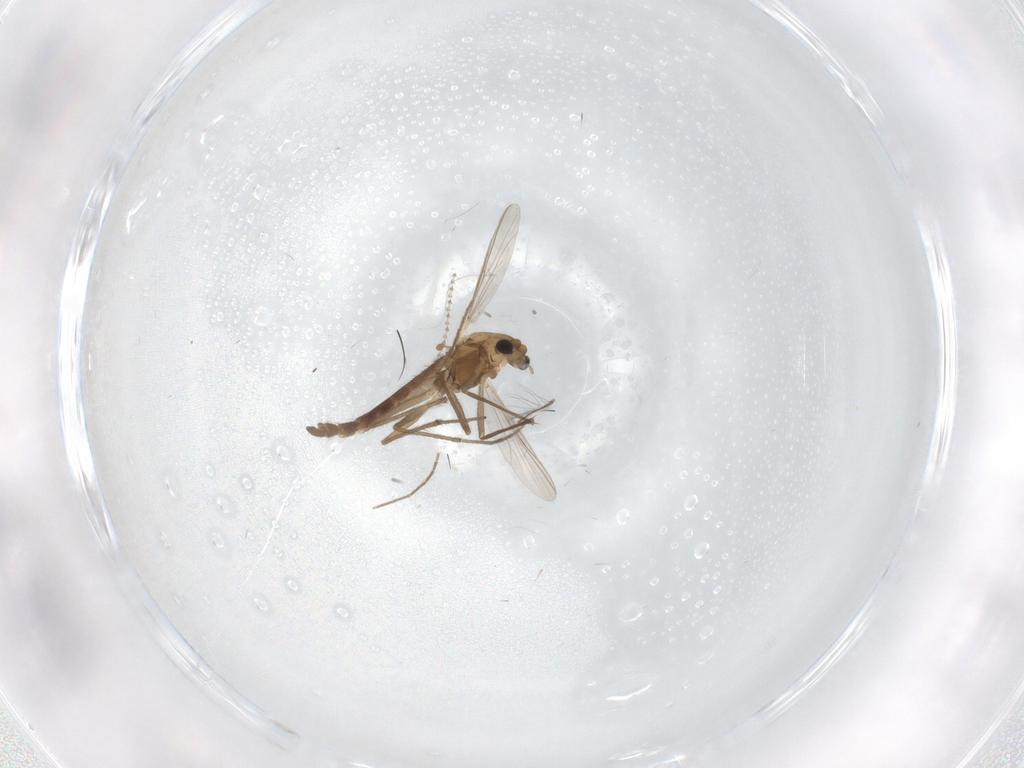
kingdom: Animalia
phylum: Arthropoda
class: Insecta
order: Diptera
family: Chironomidae
